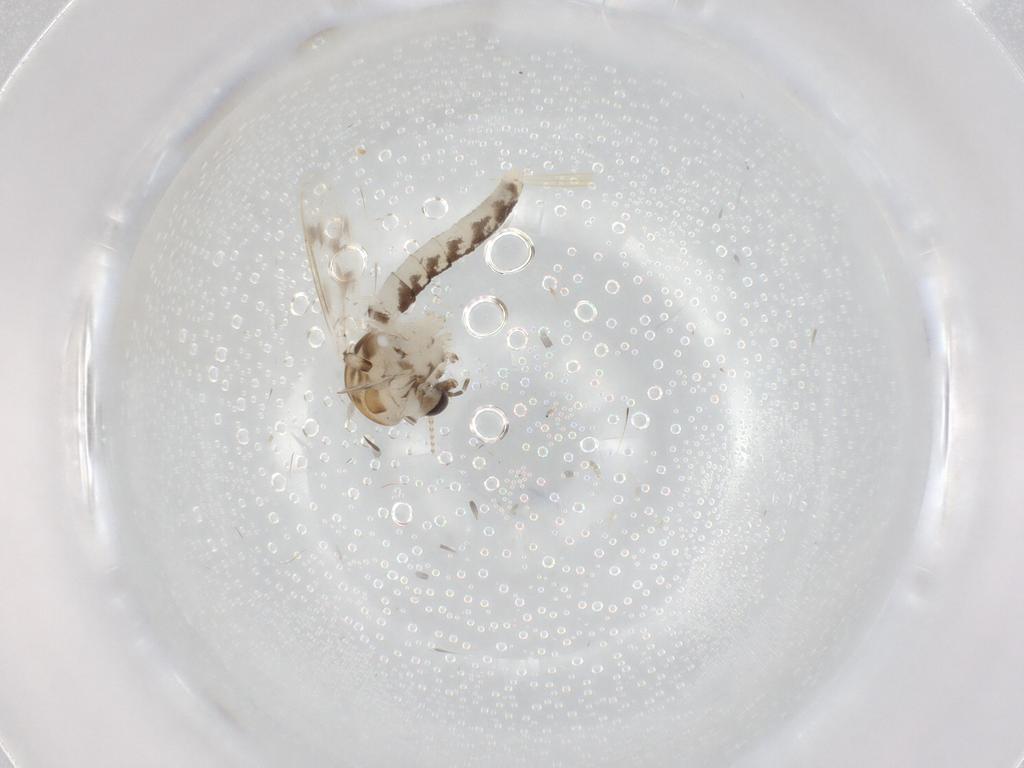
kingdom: Animalia
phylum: Arthropoda
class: Insecta
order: Diptera
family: Corethrellidae
